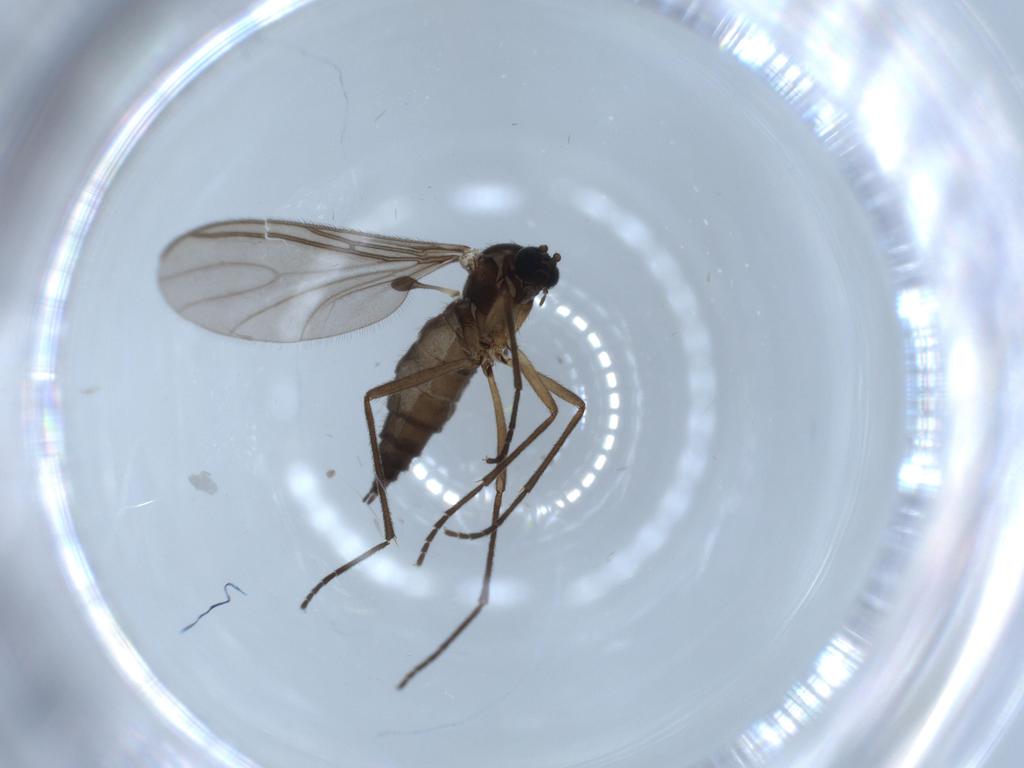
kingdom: Animalia
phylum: Arthropoda
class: Insecta
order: Diptera
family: Sciaridae
